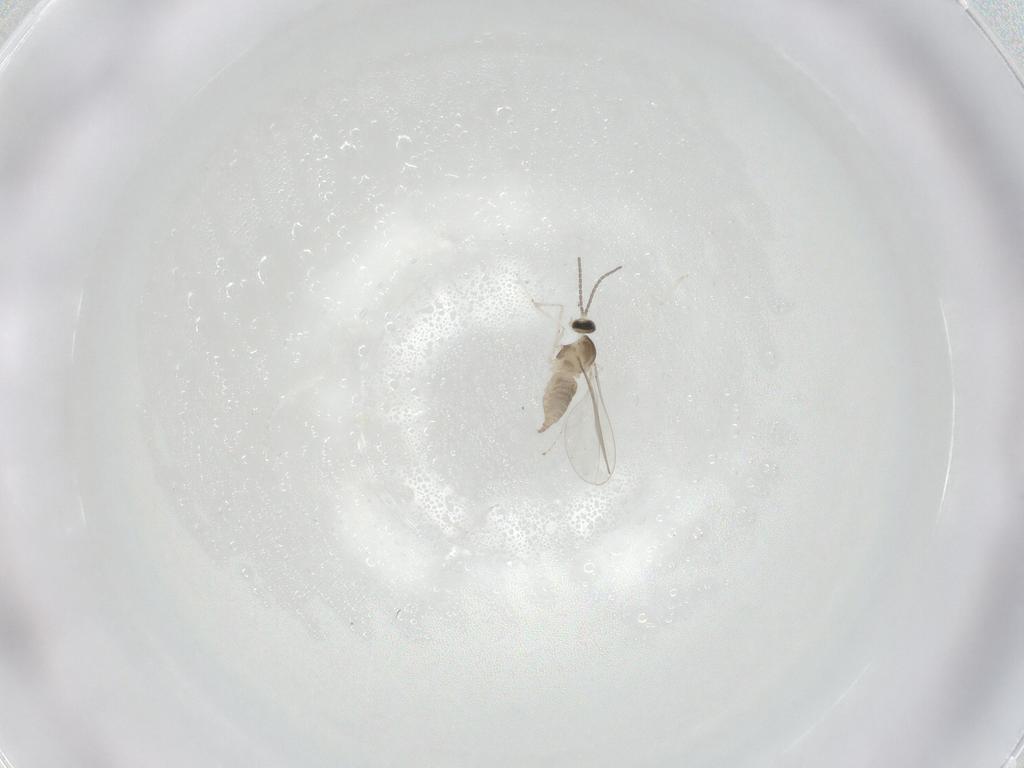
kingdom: Animalia
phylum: Arthropoda
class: Insecta
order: Diptera
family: Cecidomyiidae
